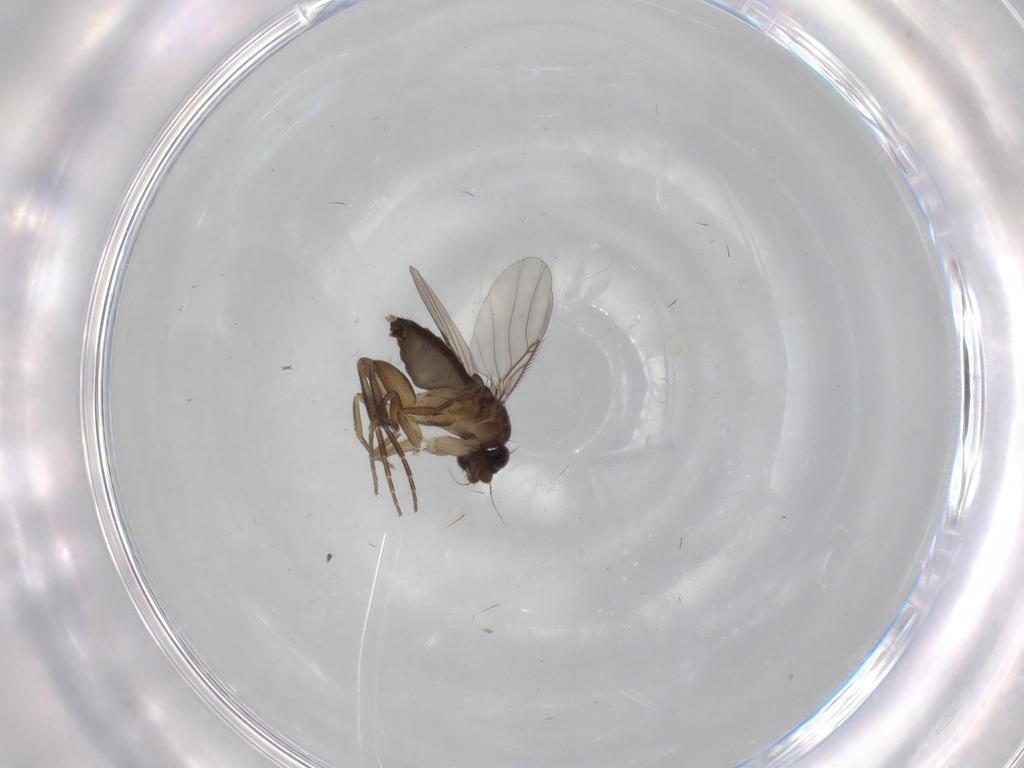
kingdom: Animalia
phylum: Arthropoda
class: Insecta
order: Diptera
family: Phoridae
